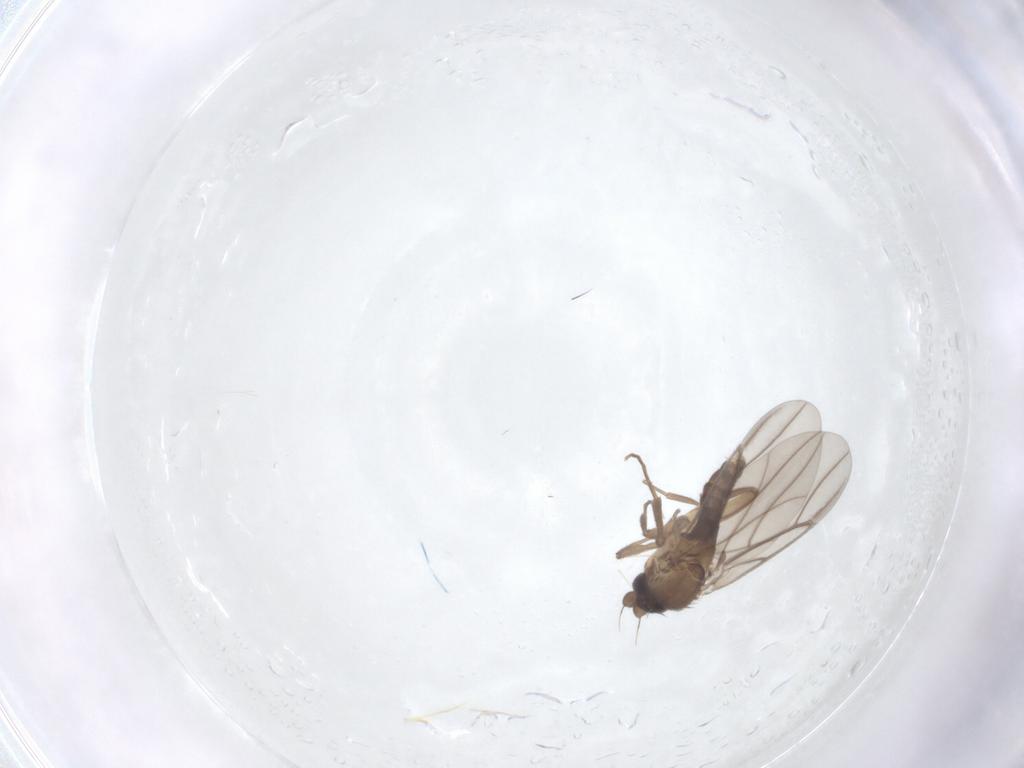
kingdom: Animalia
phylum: Arthropoda
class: Insecta
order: Diptera
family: Phoridae
